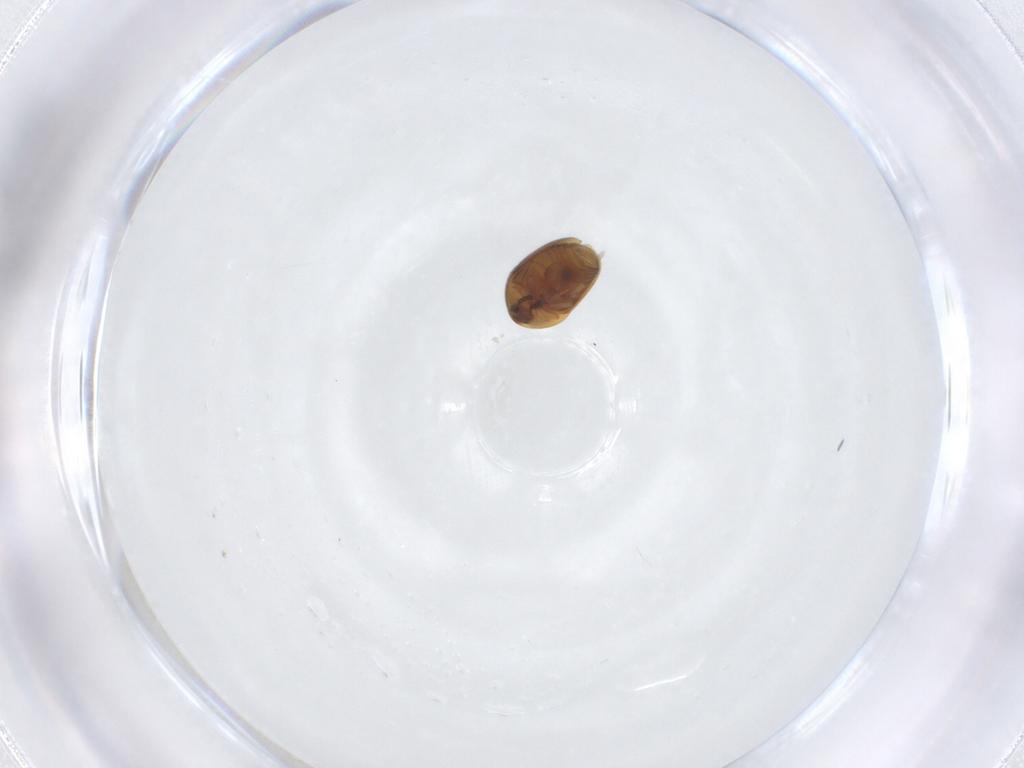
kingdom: Animalia
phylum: Arthropoda
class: Insecta
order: Coleoptera
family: Corylophidae
